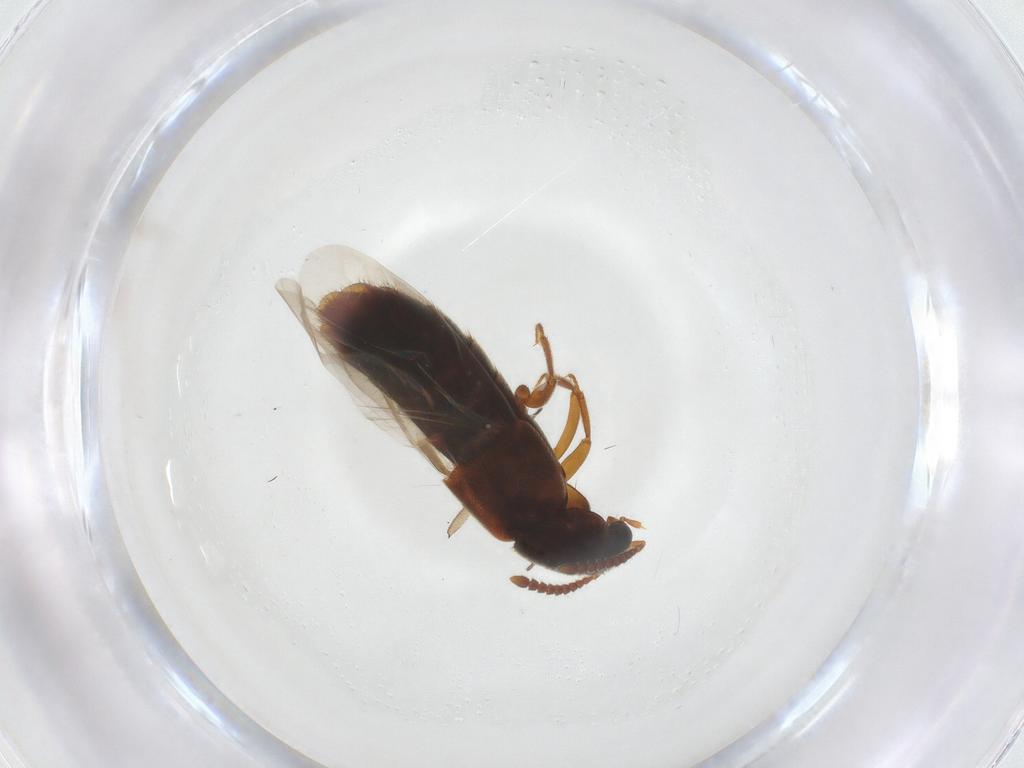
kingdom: Animalia
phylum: Arthropoda
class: Insecta
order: Coleoptera
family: Staphylinidae
